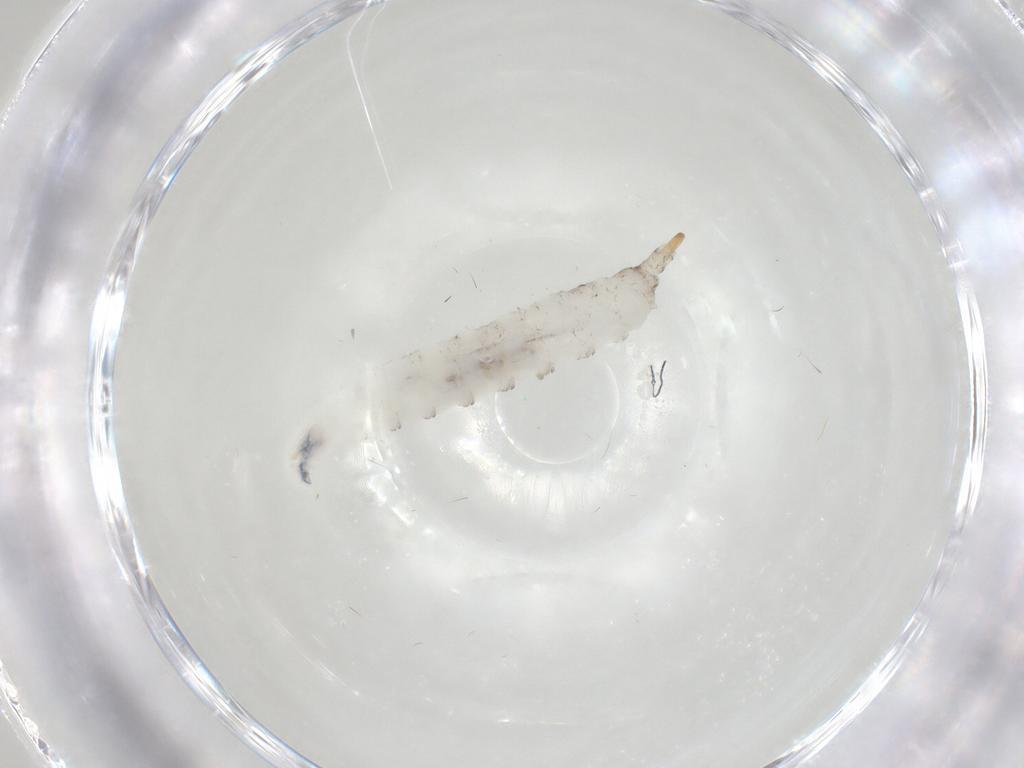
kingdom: Animalia
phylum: Arthropoda
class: Insecta
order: Diptera
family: Cecidomyiidae
